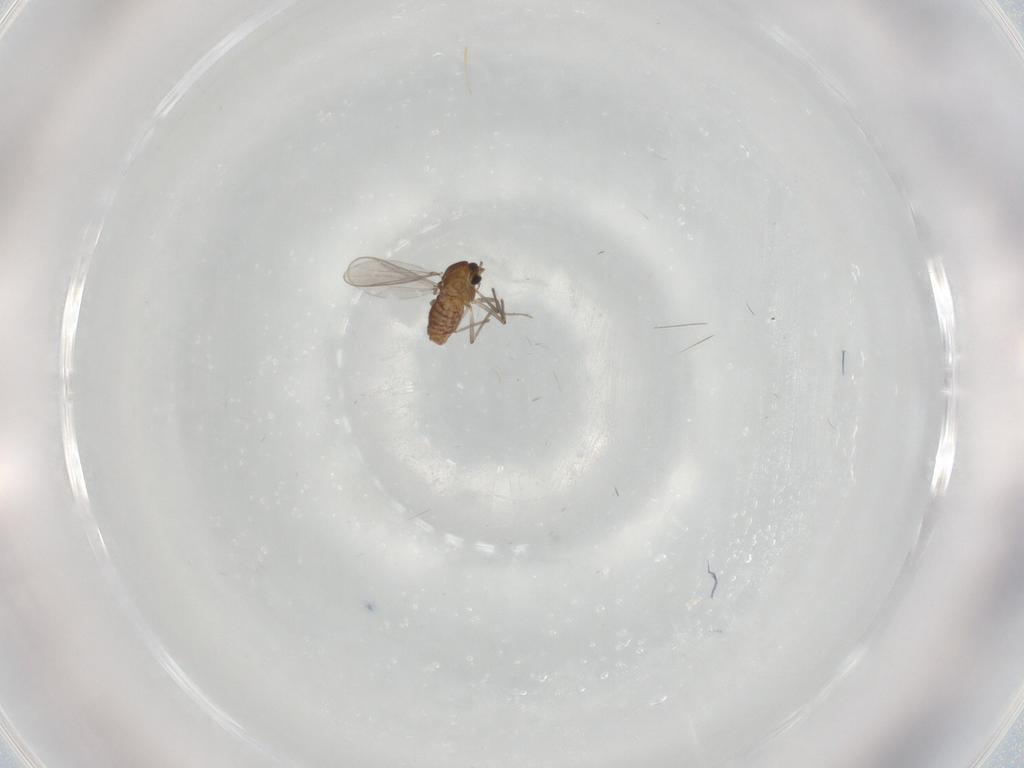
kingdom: Animalia
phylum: Arthropoda
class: Insecta
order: Diptera
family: Chironomidae
